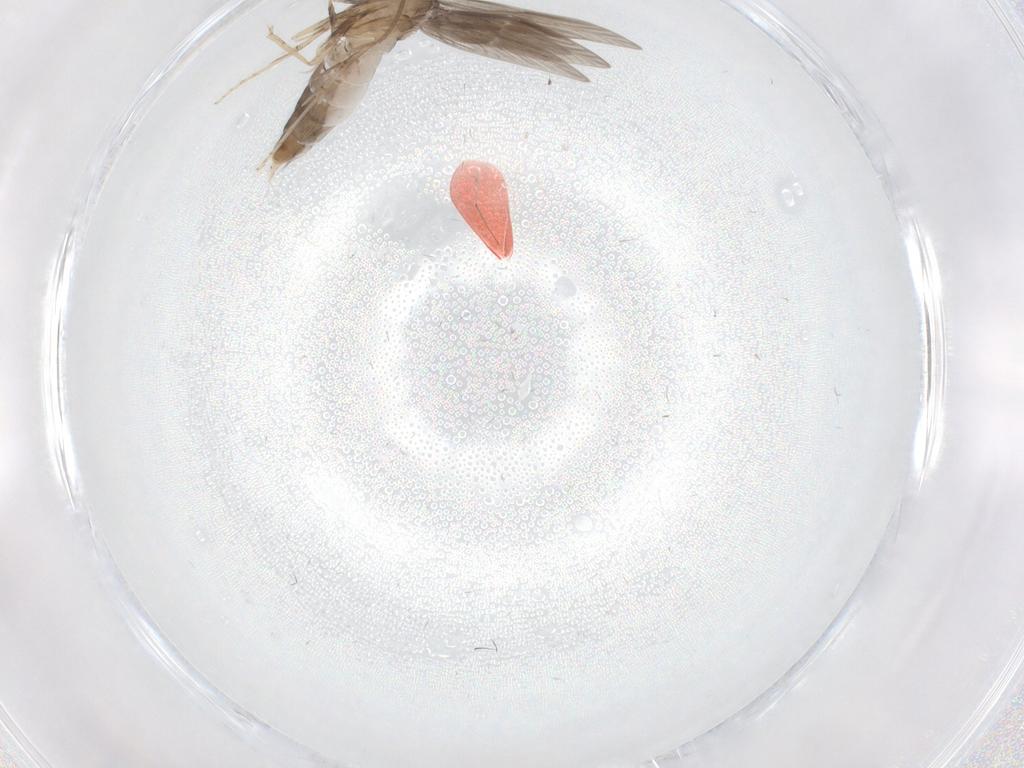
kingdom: Animalia
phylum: Arthropoda
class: Insecta
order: Trichoptera
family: Hydroptilidae
